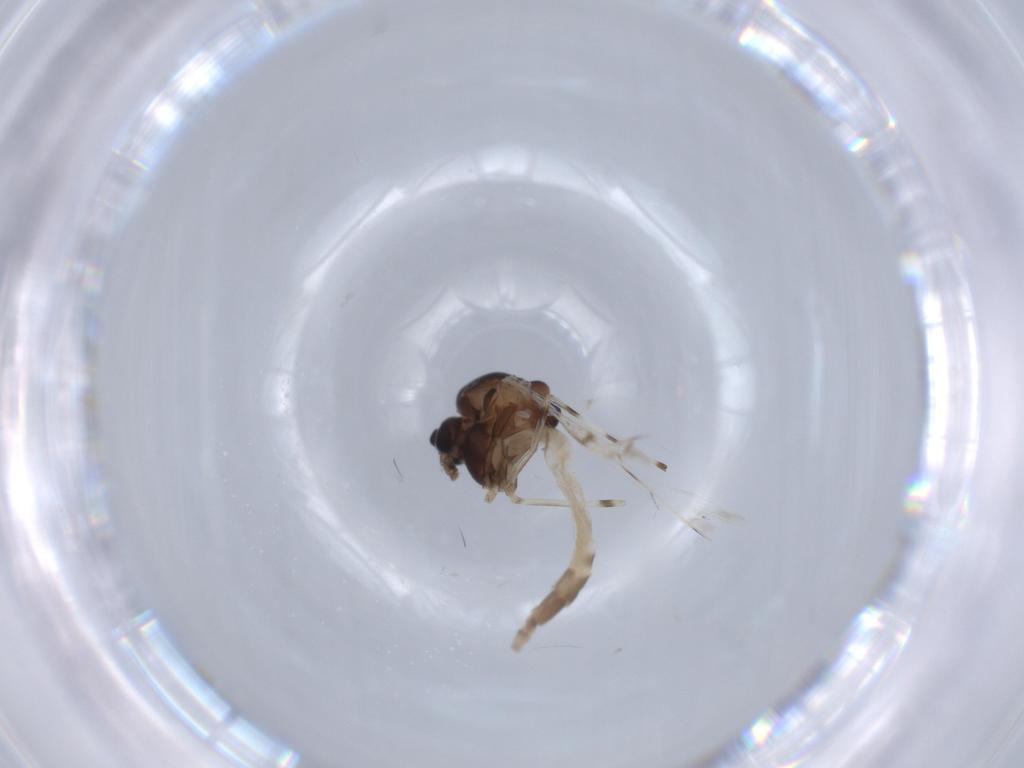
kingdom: Animalia
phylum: Arthropoda
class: Insecta
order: Diptera
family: Chironomidae
